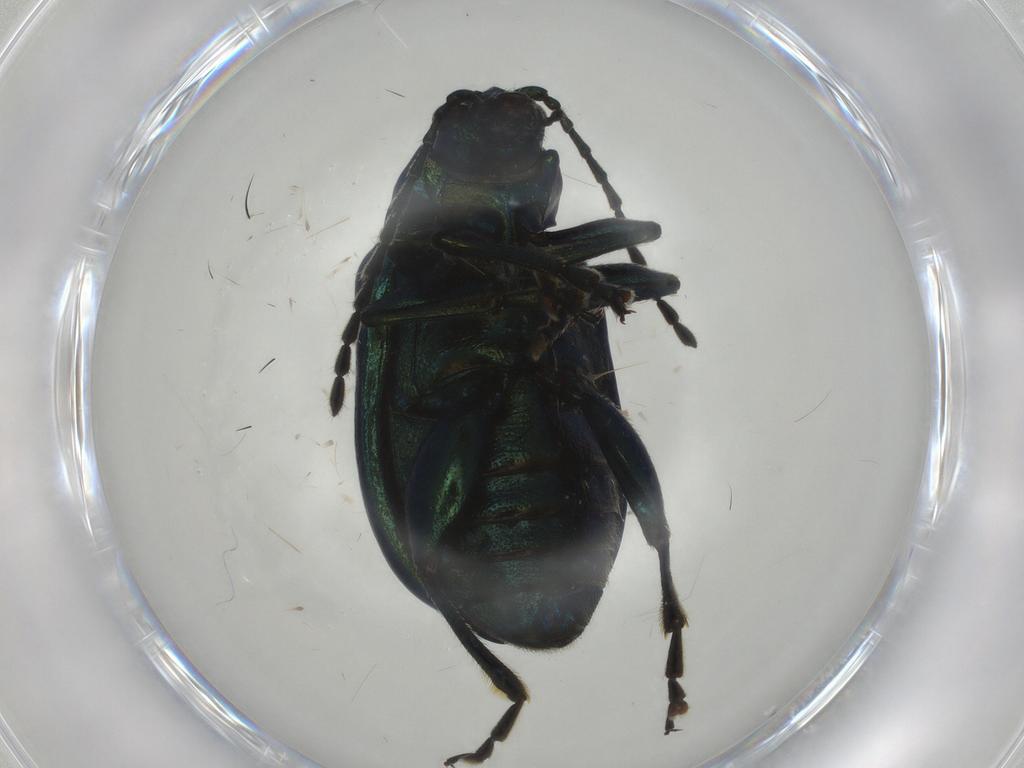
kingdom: Animalia
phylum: Arthropoda
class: Insecta
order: Coleoptera
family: Chrysomelidae
